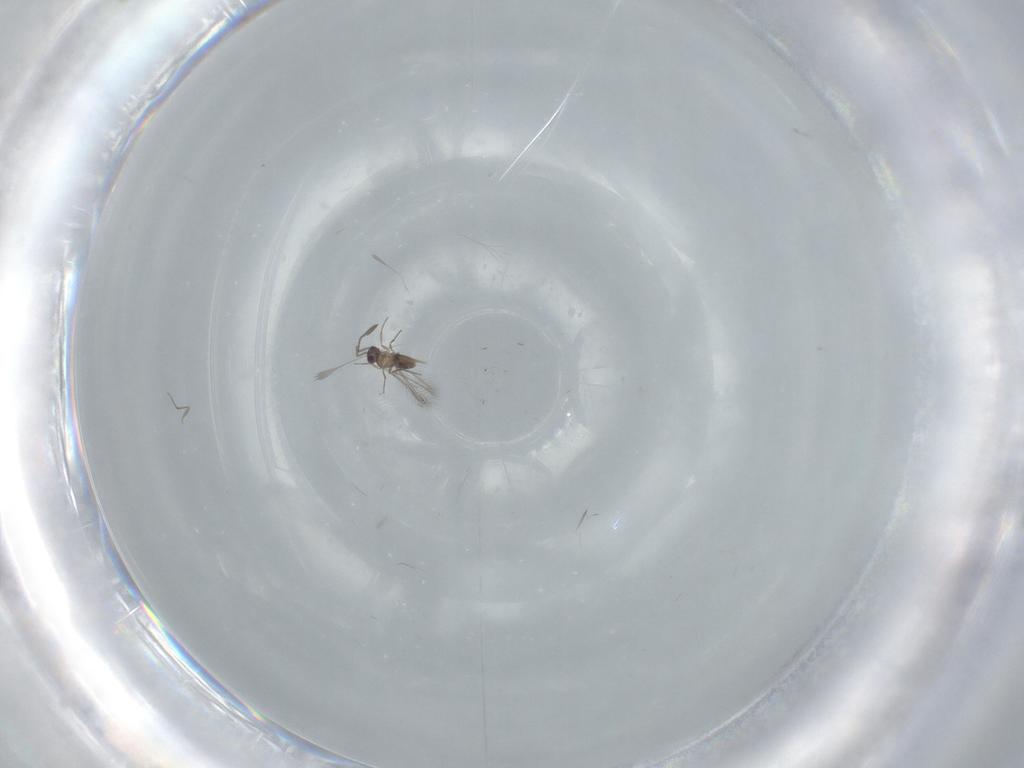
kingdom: Animalia
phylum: Arthropoda
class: Insecta
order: Hymenoptera
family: Mymaridae
